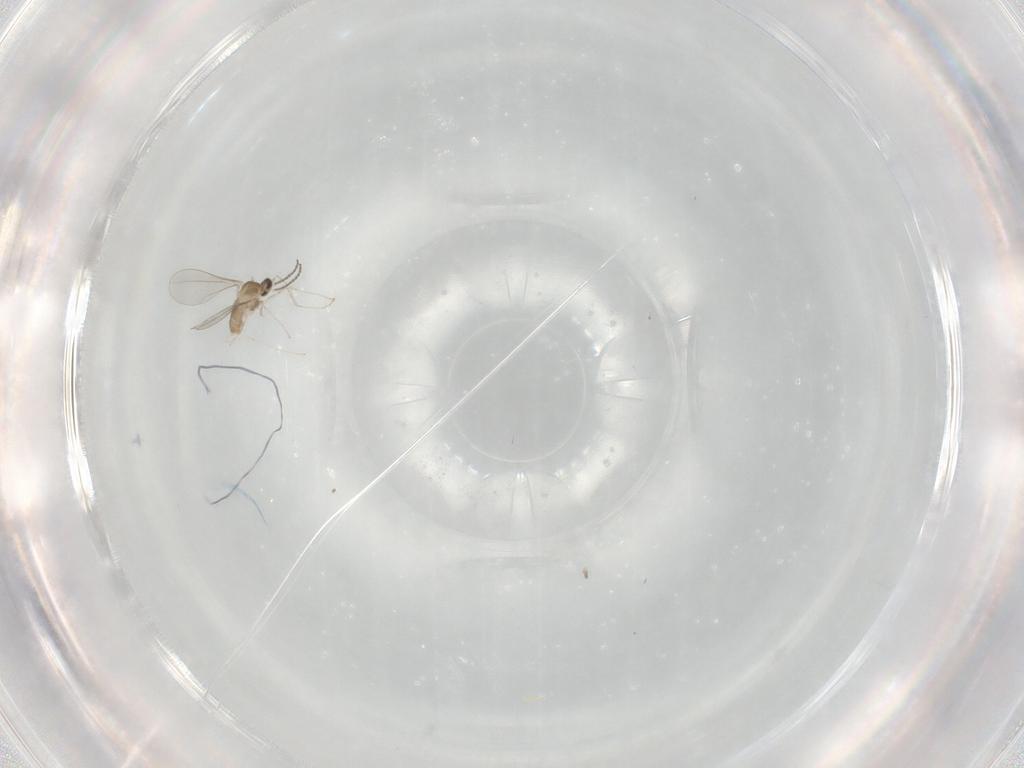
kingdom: Animalia
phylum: Arthropoda
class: Insecta
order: Diptera
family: Cecidomyiidae
